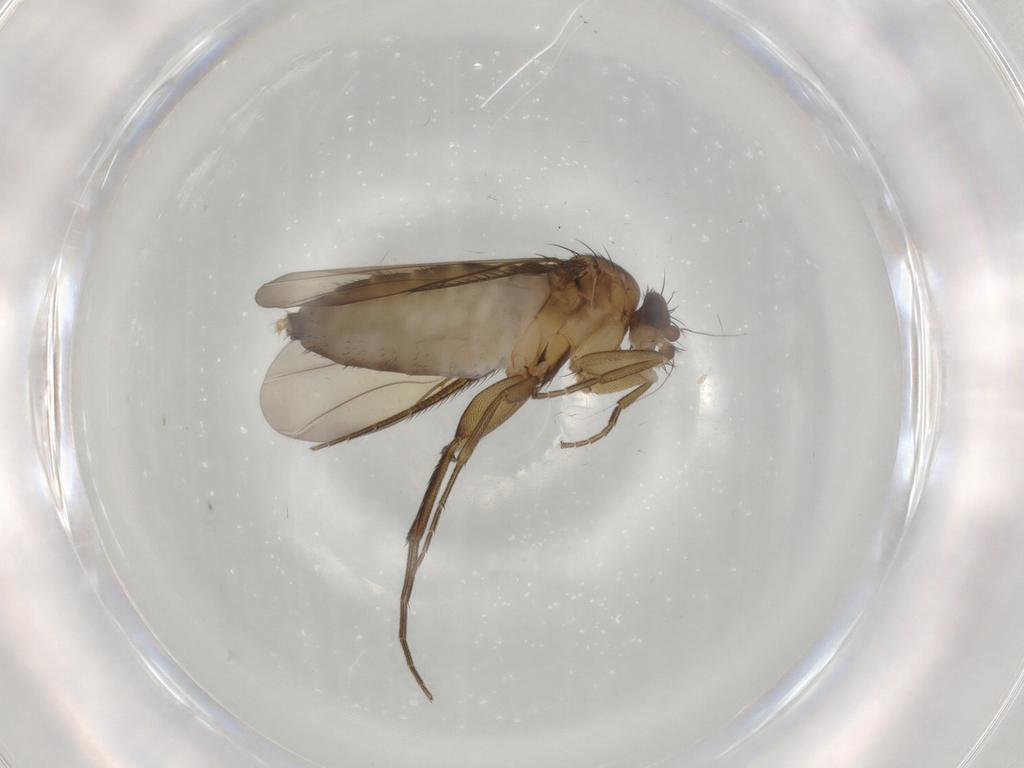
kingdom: Animalia
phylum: Arthropoda
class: Insecta
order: Diptera
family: Phoridae
